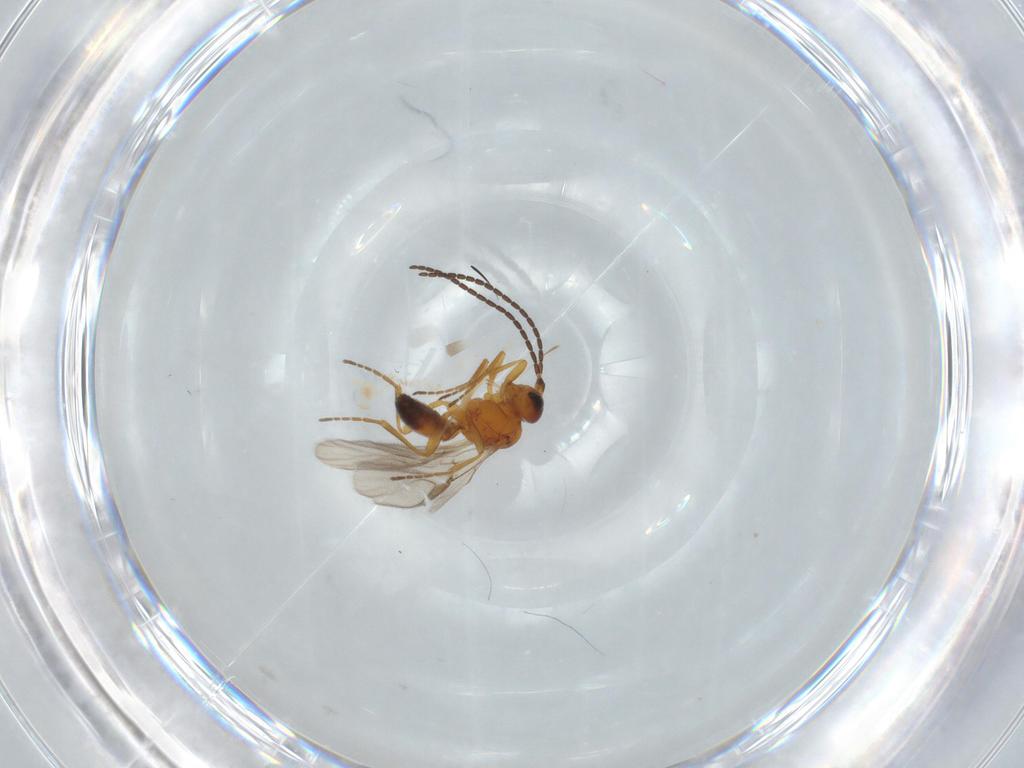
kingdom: Animalia
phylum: Arthropoda
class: Insecta
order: Hymenoptera
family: Braconidae
